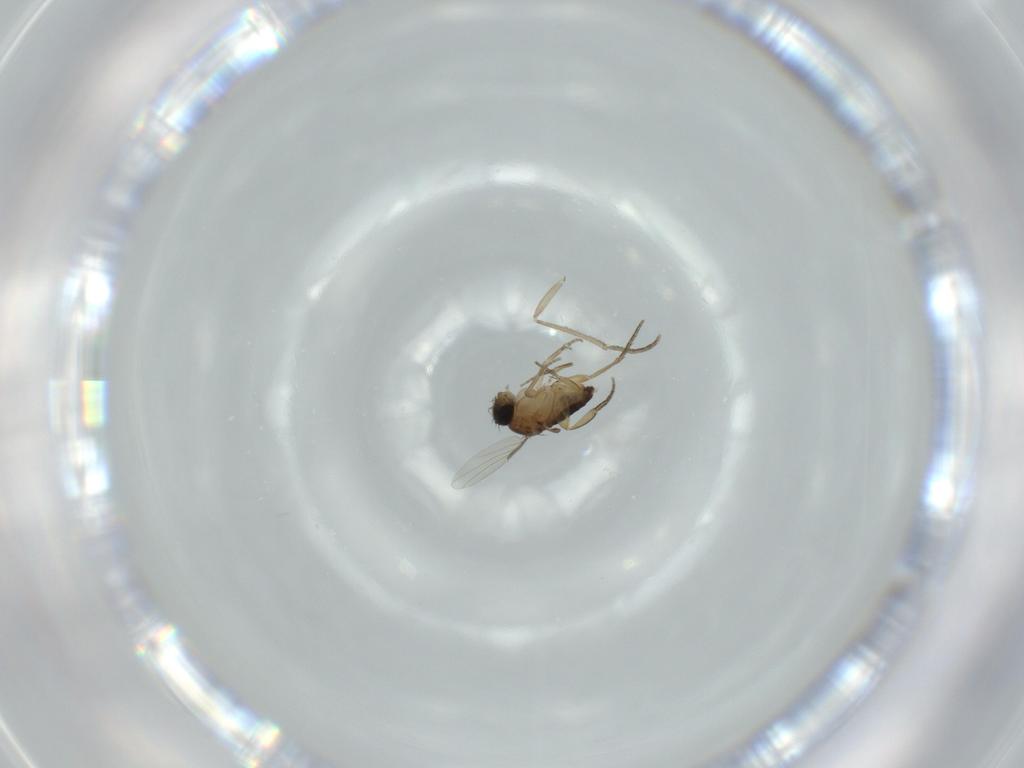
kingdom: Animalia
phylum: Arthropoda
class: Insecta
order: Diptera
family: Phoridae
